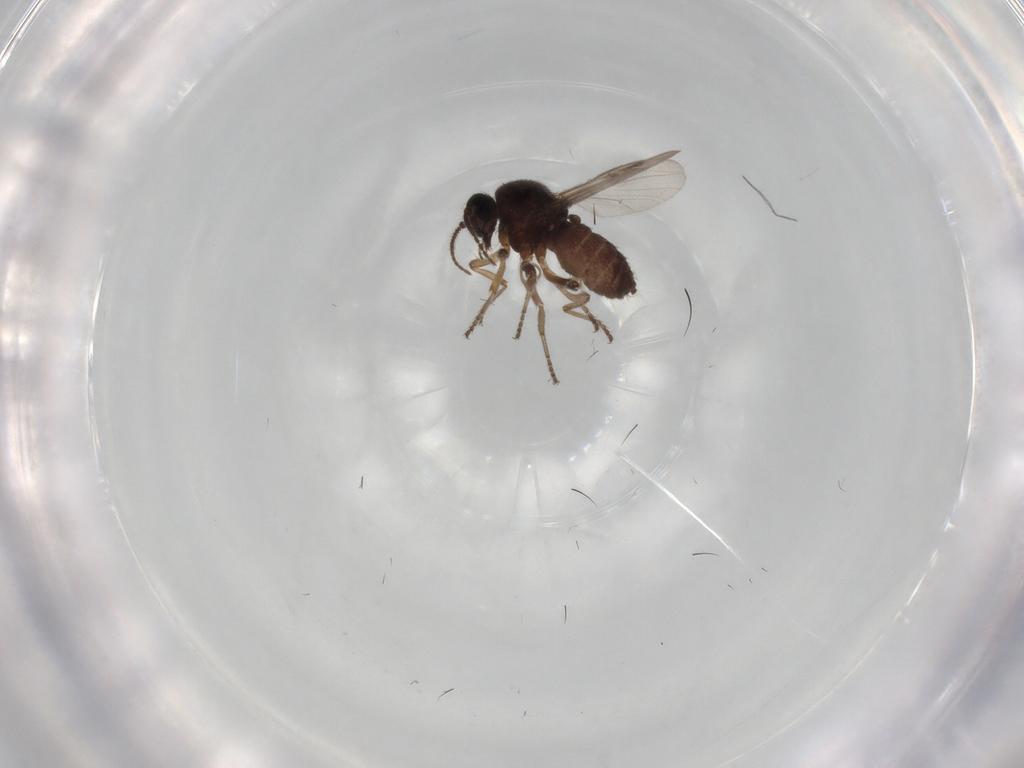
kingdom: Animalia
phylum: Arthropoda
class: Insecta
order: Diptera
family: Ceratopogonidae
